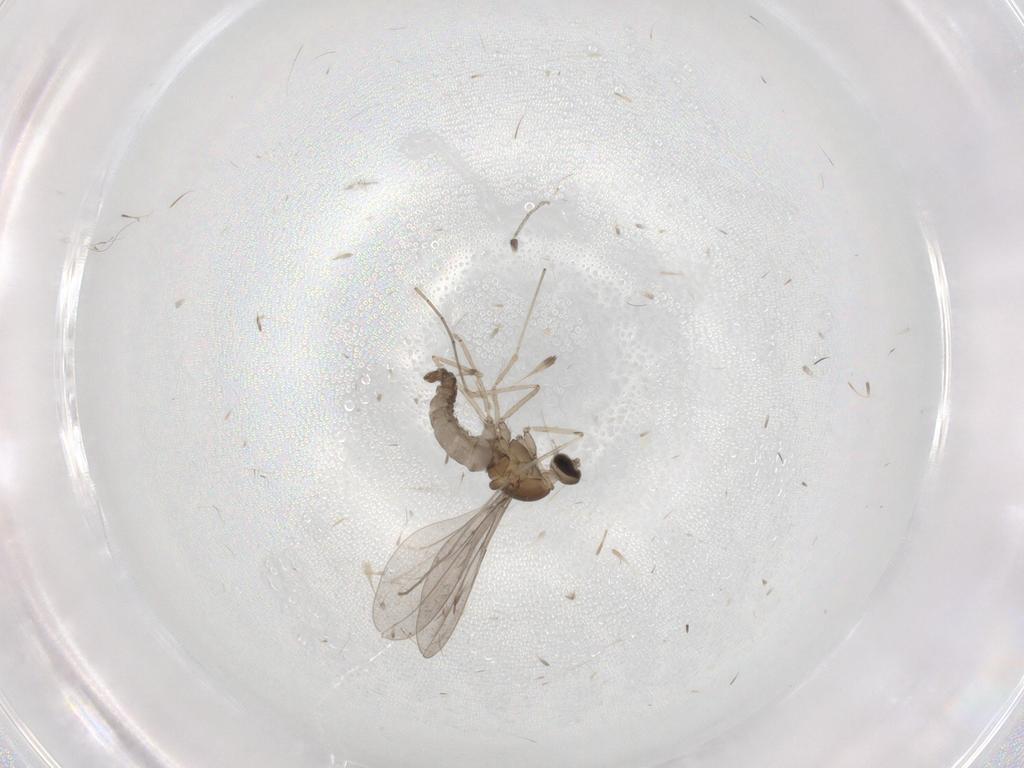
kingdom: Animalia
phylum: Arthropoda
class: Insecta
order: Diptera
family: Cecidomyiidae
